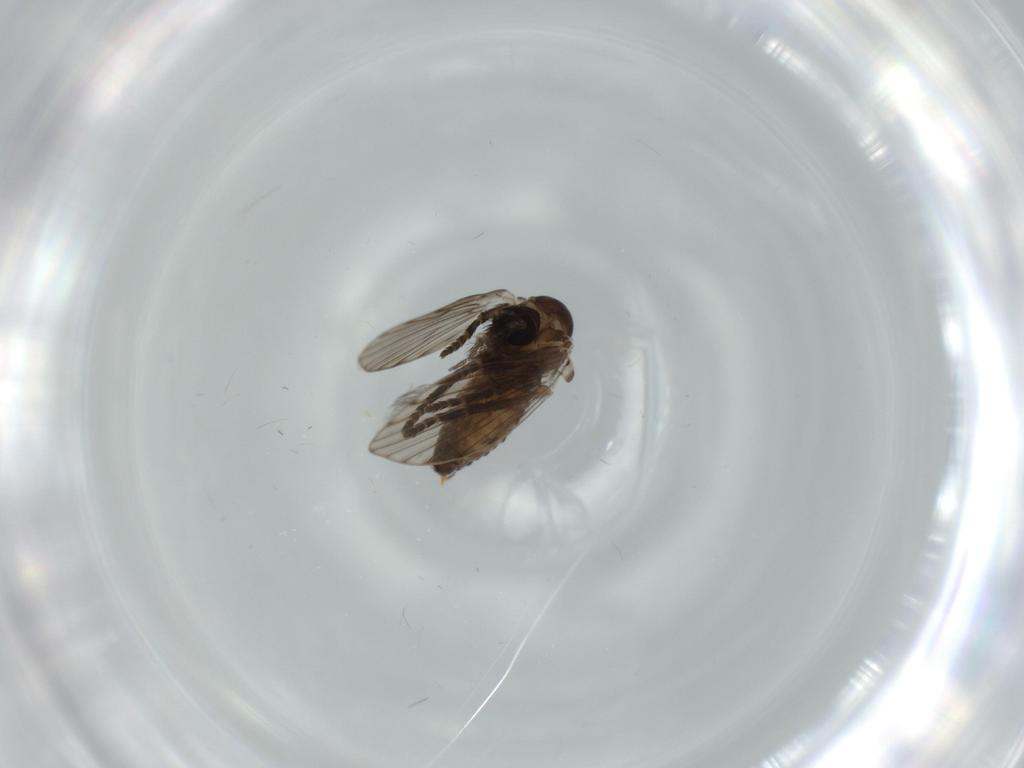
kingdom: Animalia
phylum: Arthropoda
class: Insecta
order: Diptera
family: Psychodidae
